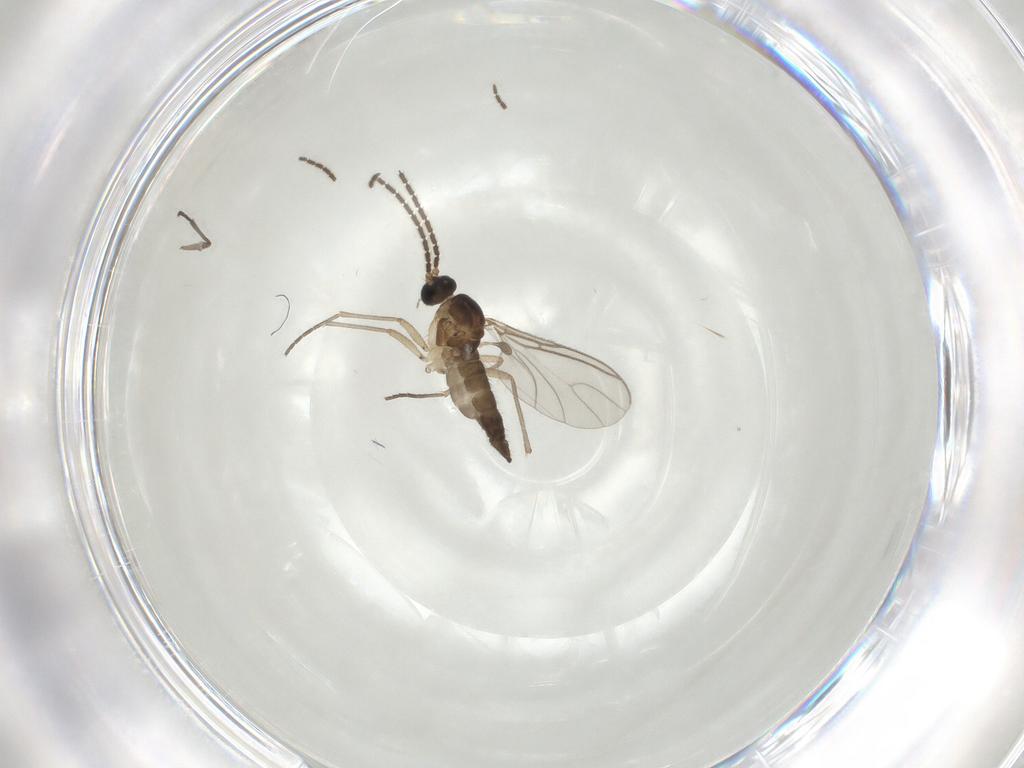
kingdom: Animalia
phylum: Arthropoda
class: Insecta
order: Diptera
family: Sciaridae
